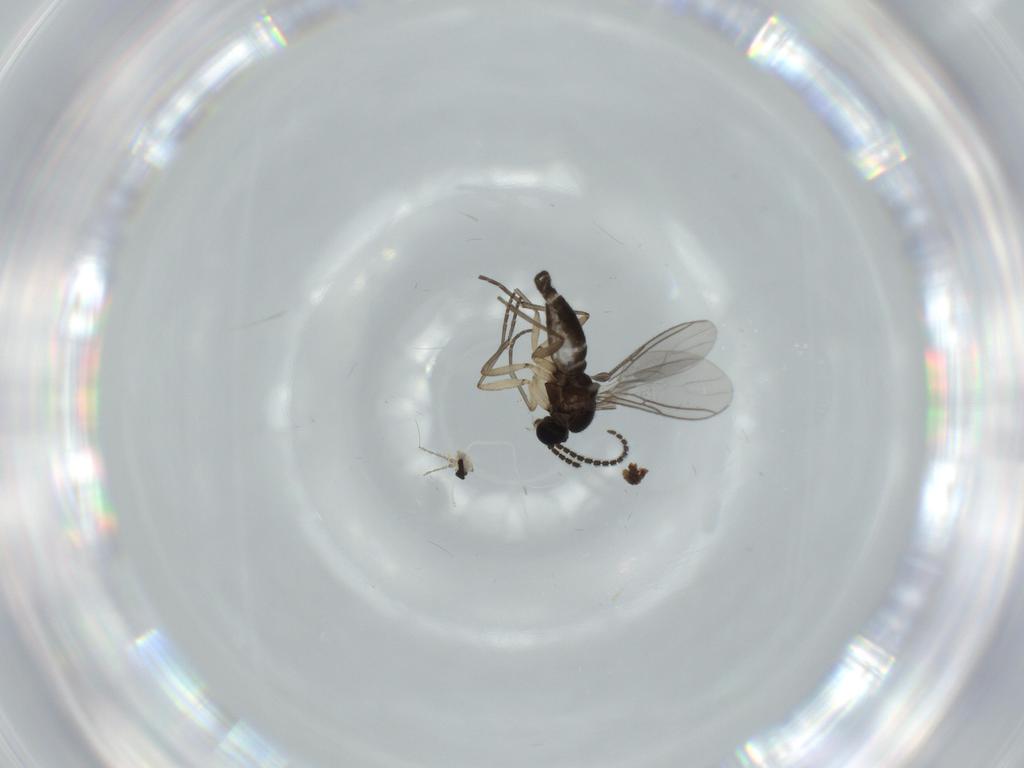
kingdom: Animalia
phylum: Arthropoda
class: Insecta
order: Diptera
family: Sciaridae
